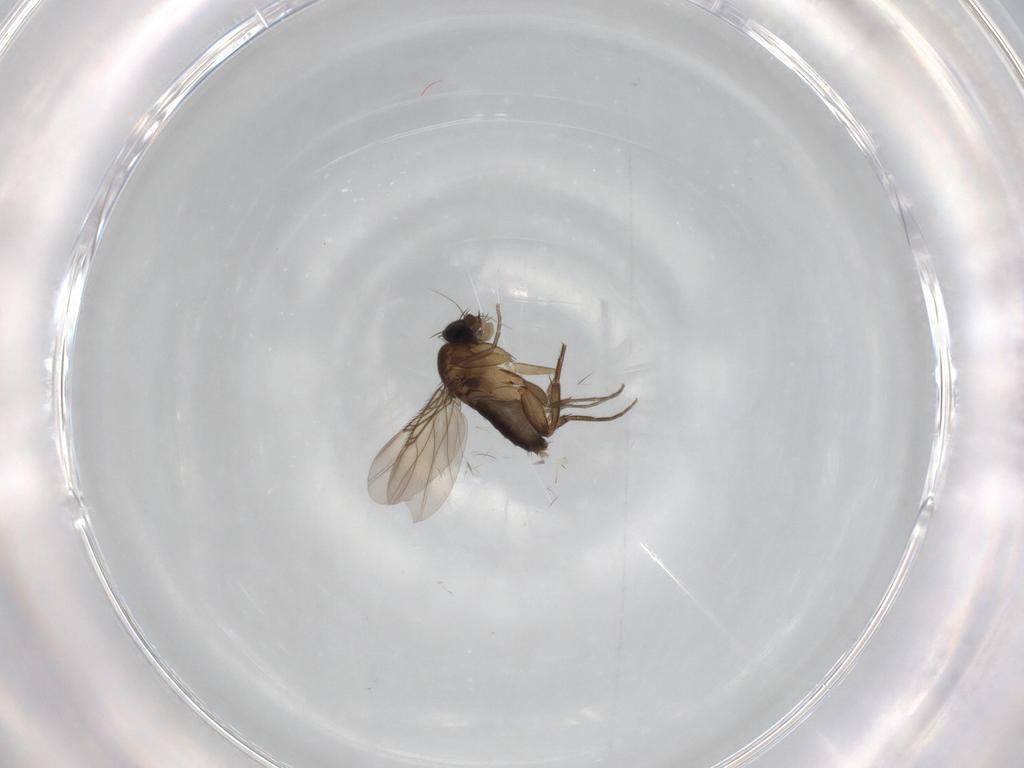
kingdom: Animalia
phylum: Arthropoda
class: Insecta
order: Diptera
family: Phoridae
